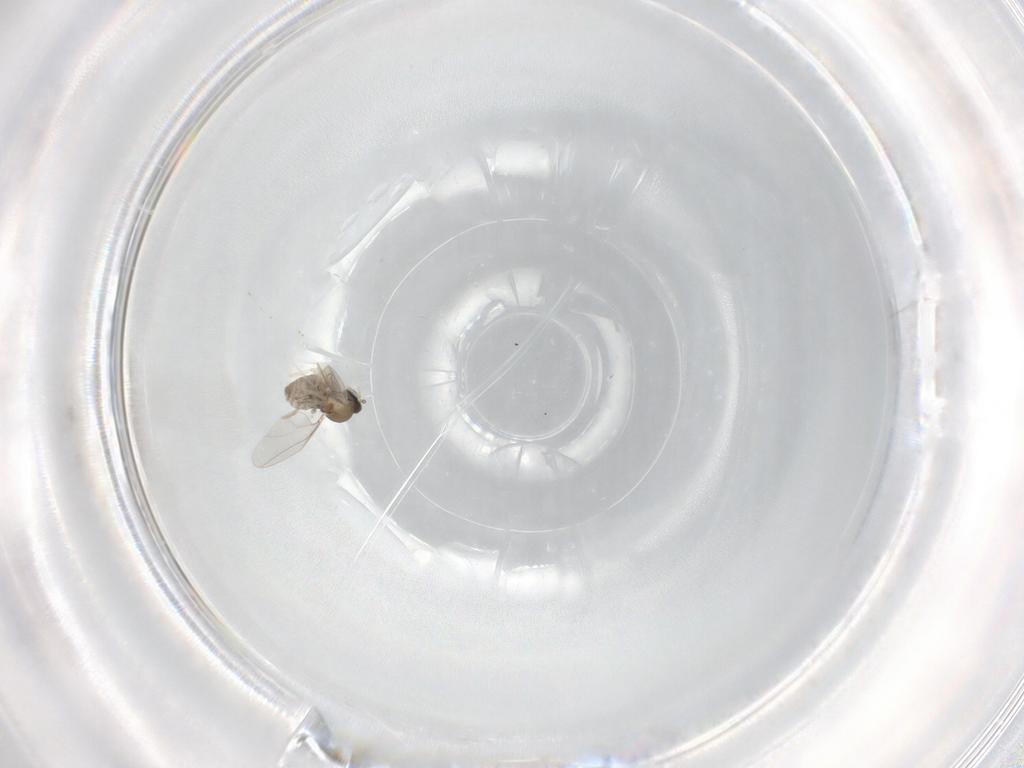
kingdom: Animalia
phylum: Arthropoda
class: Insecta
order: Diptera
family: Cecidomyiidae
